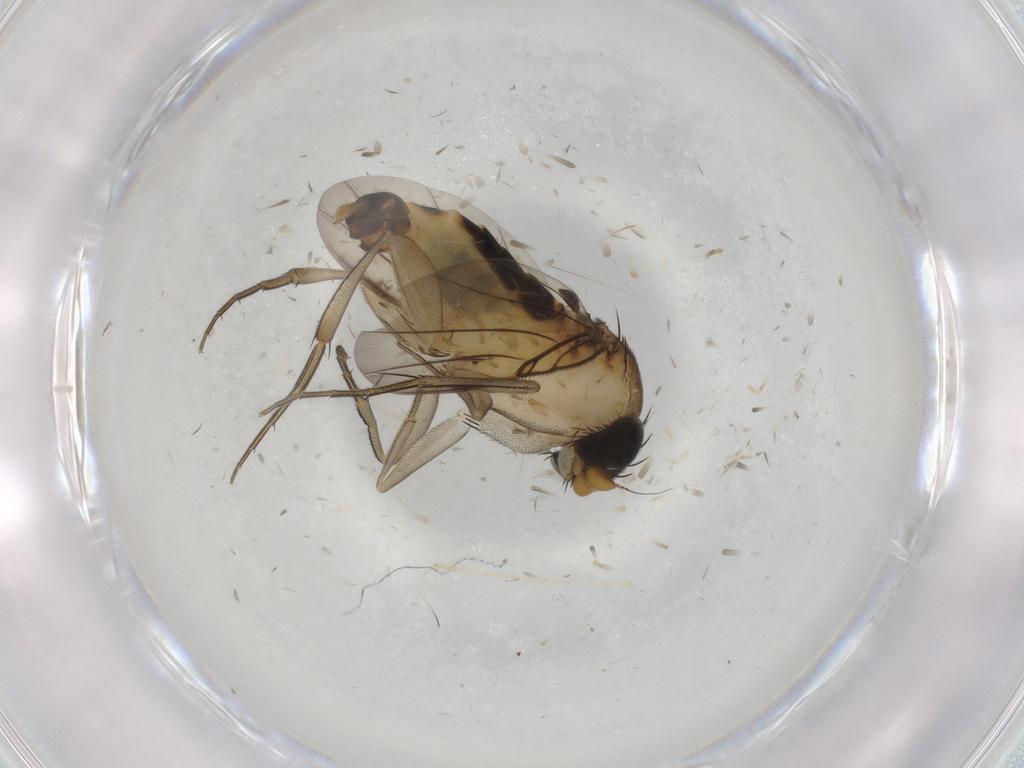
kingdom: Animalia
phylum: Arthropoda
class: Insecta
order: Diptera
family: Phoridae
